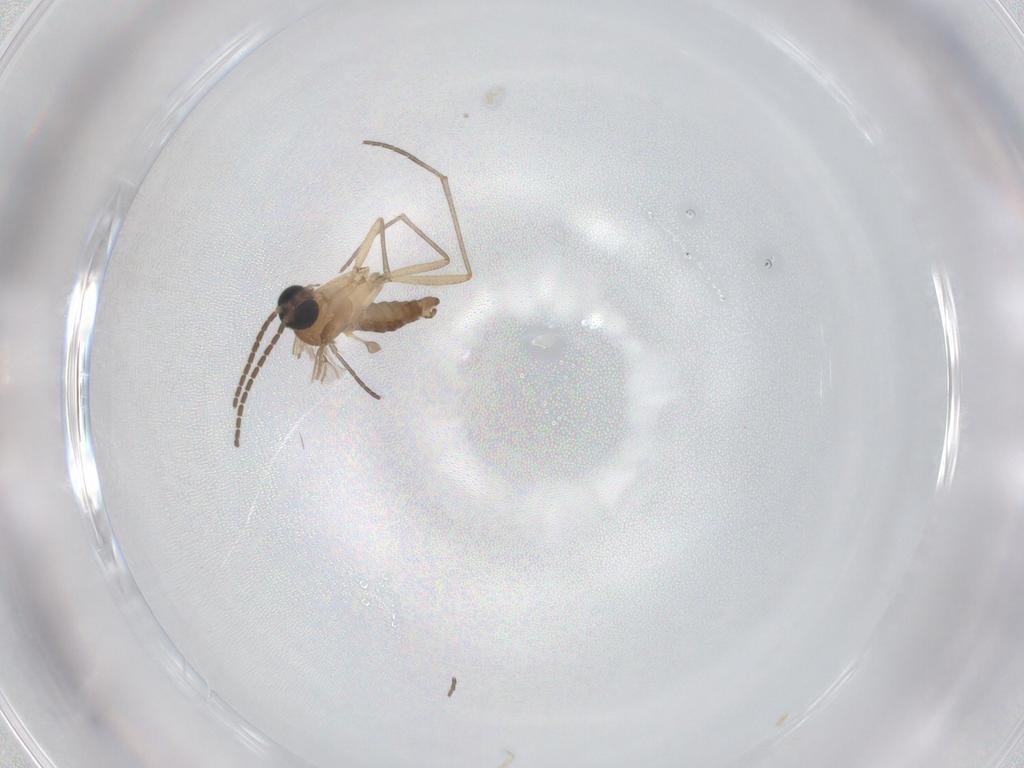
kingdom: Animalia
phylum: Arthropoda
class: Insecta
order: Diptera
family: Sciaridae
